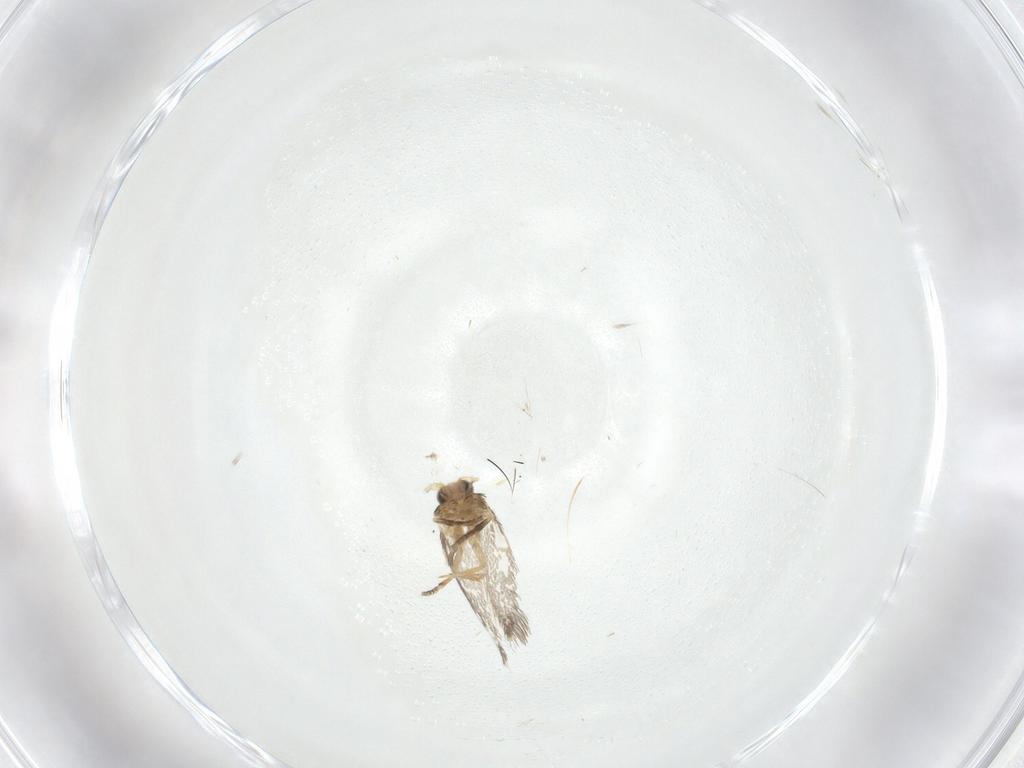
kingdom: Animalia
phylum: Arthropoda
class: Insecta
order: Lepidoptera
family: Nepticulidae
